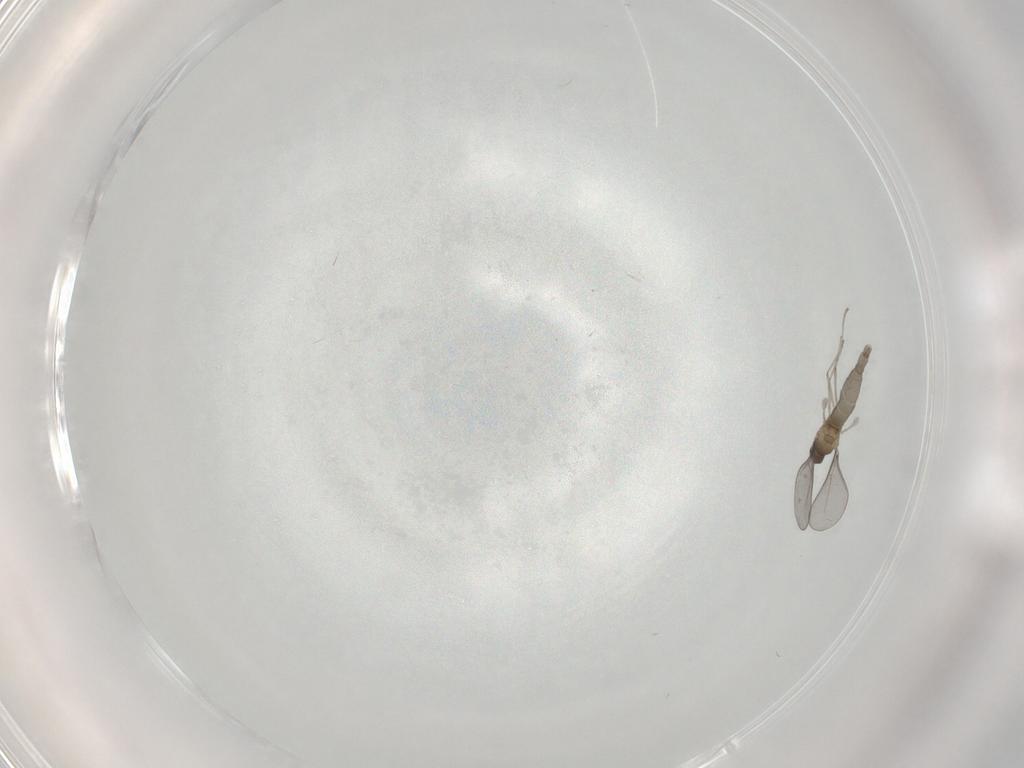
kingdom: Animalia
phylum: Arthropoda
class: Insecta
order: Diptera
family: Cecidomyiidae
